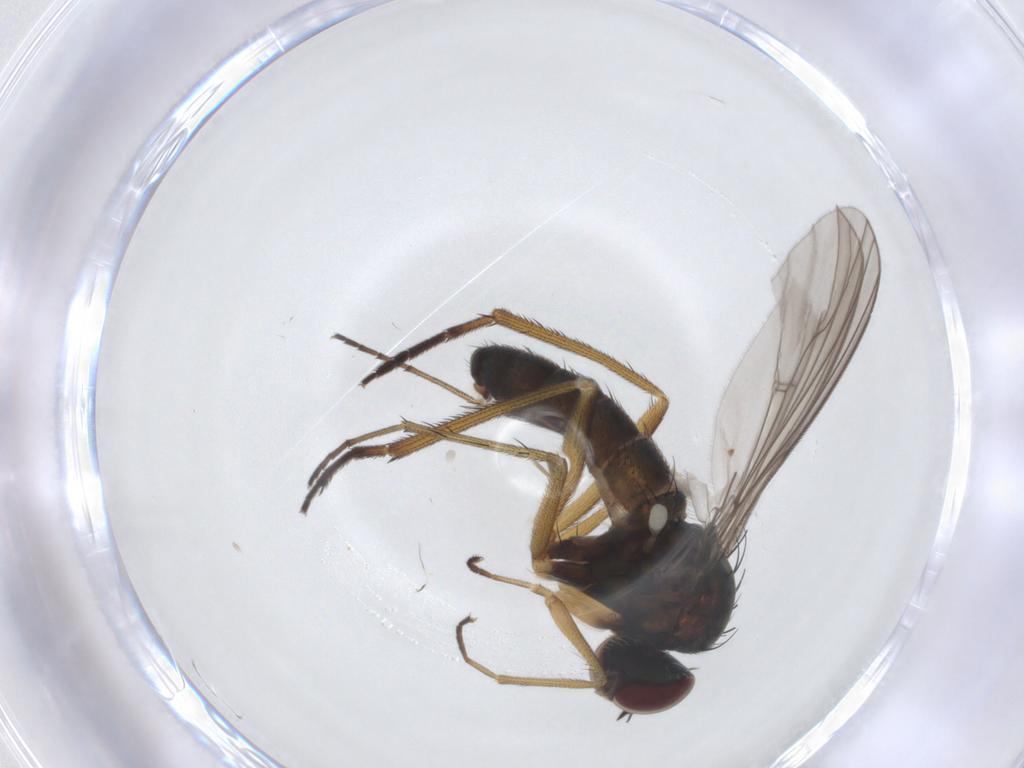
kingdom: Animalia
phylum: Arthropoda
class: Insecta
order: Diptera
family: Dolichopodidae
